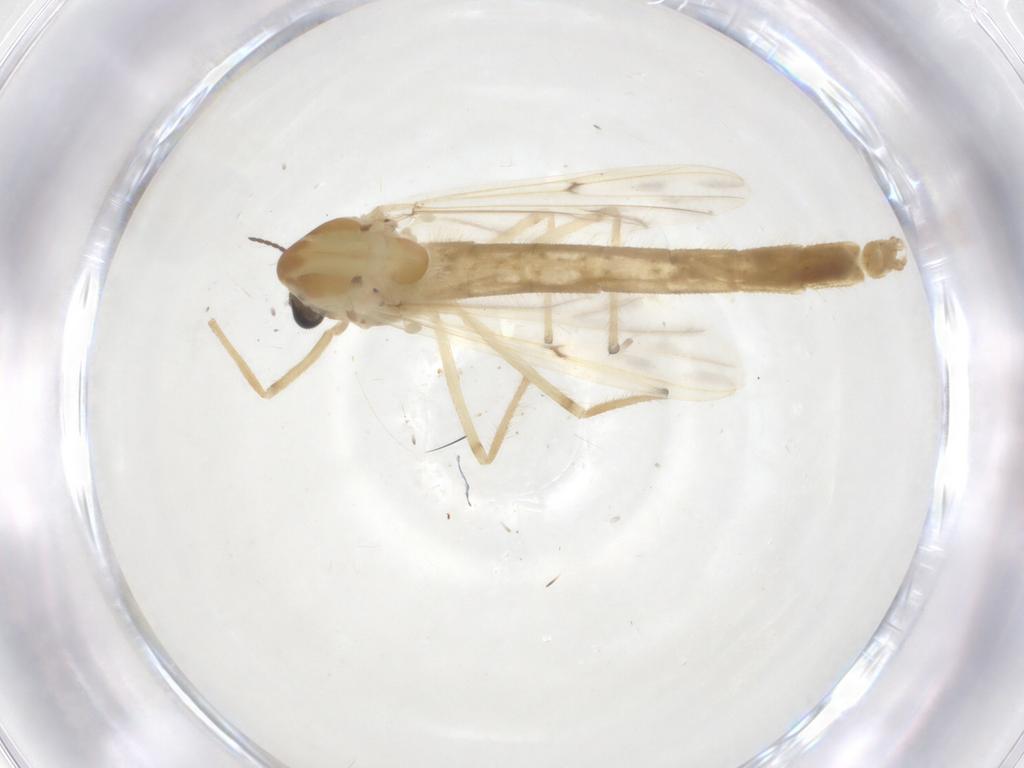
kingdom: Animalia
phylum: Arthropoda
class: Insecta
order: Diptera
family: Chironomidae
